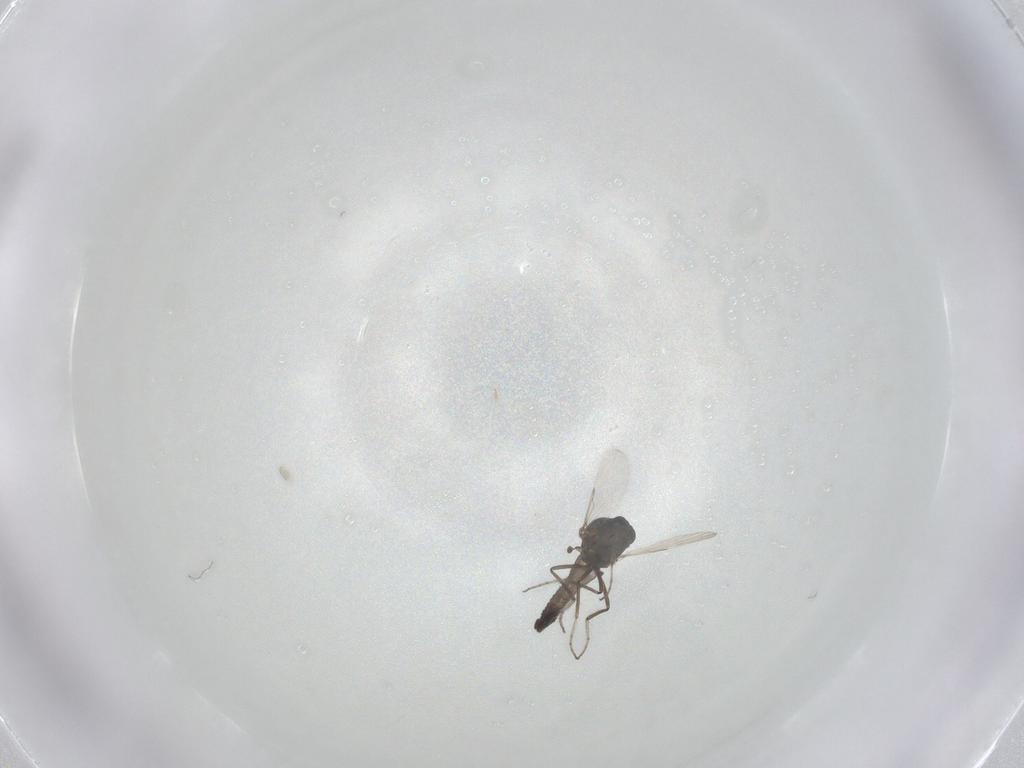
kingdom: Animalia
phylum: Arthropoda
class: Insecta
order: Diptera
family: Ceratopogonidae
